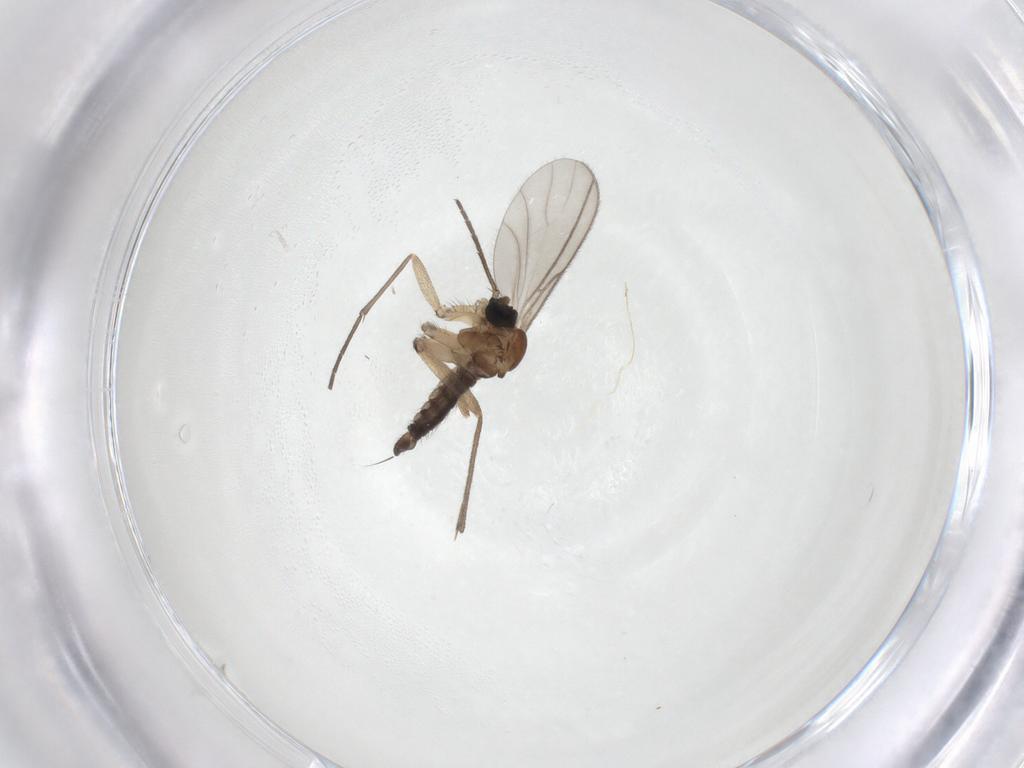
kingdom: Animalia
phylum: Arthropoda
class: Insecta
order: Diptera
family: Sciaridae
